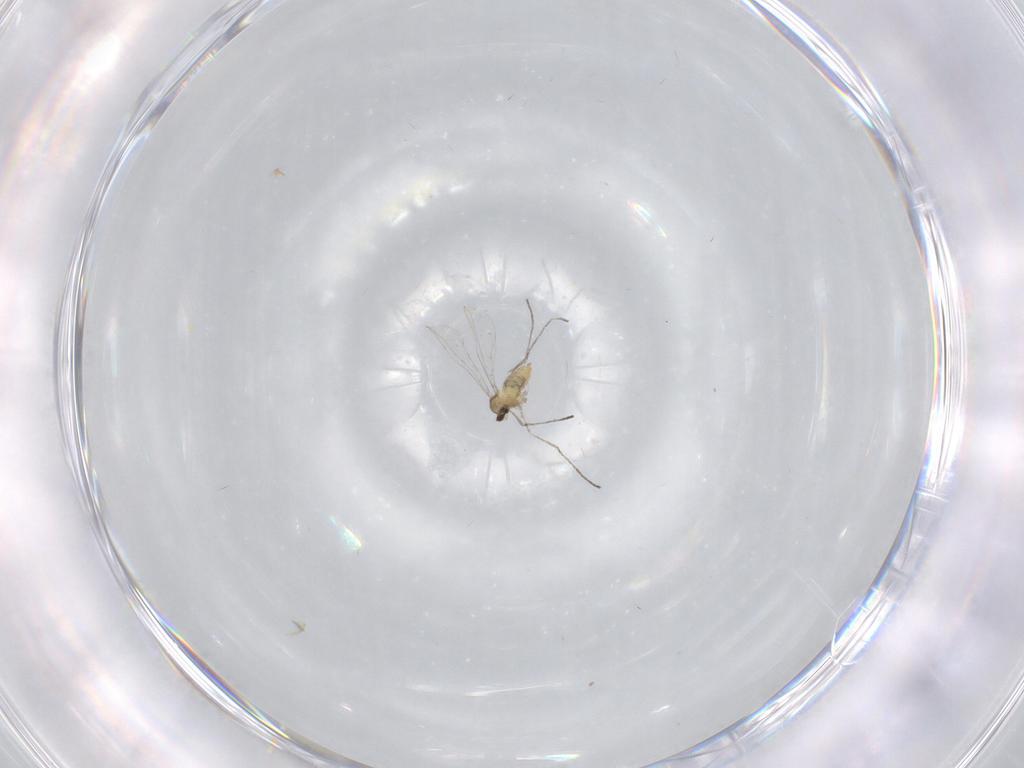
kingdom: Animalia
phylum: Arthropoda
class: Insecta
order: Diptera
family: Cecidomyiidae
